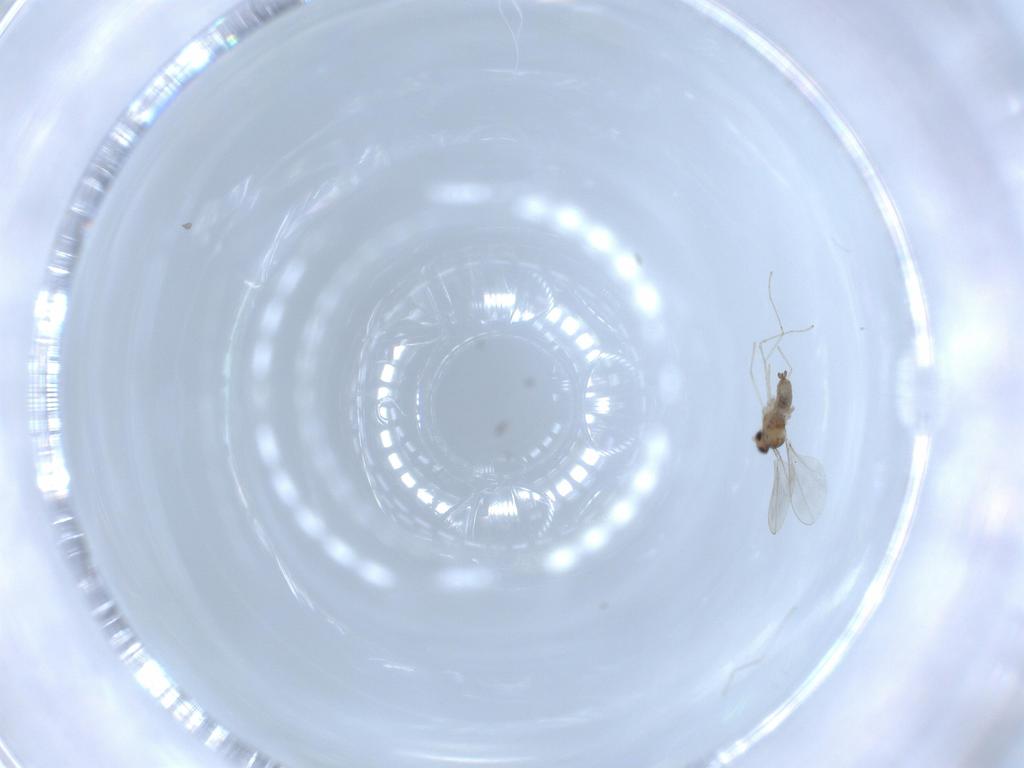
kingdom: Animalia
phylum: Arthropoda
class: Insecta
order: Diptera
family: Cecidomyiidae
